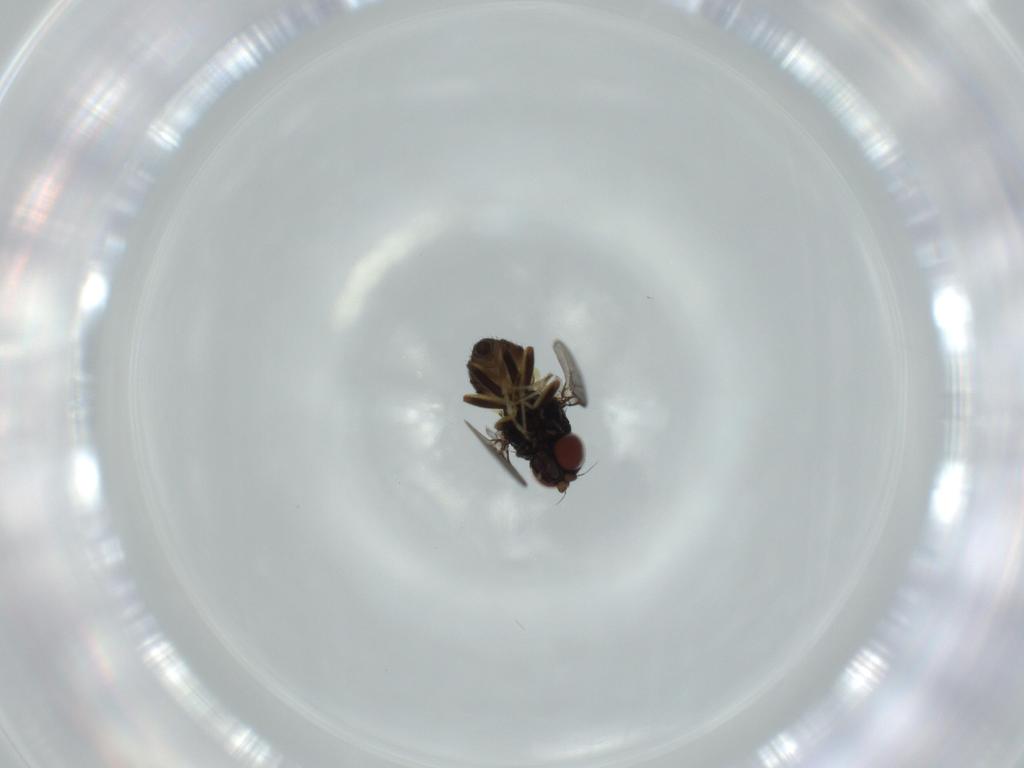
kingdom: Animalia
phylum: Arthropoda
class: Insecta
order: Diptera
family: Chloropidae
